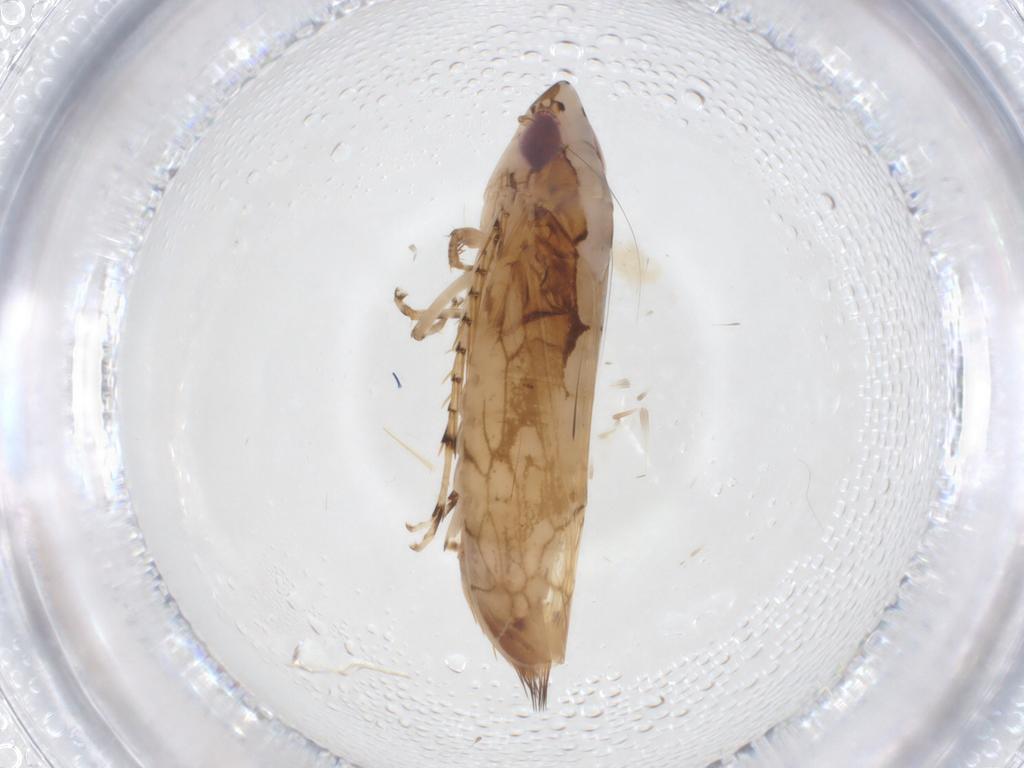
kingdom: Animalia
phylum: Arthropoda
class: Insecta
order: Hemiptera
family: Cicadellidae
